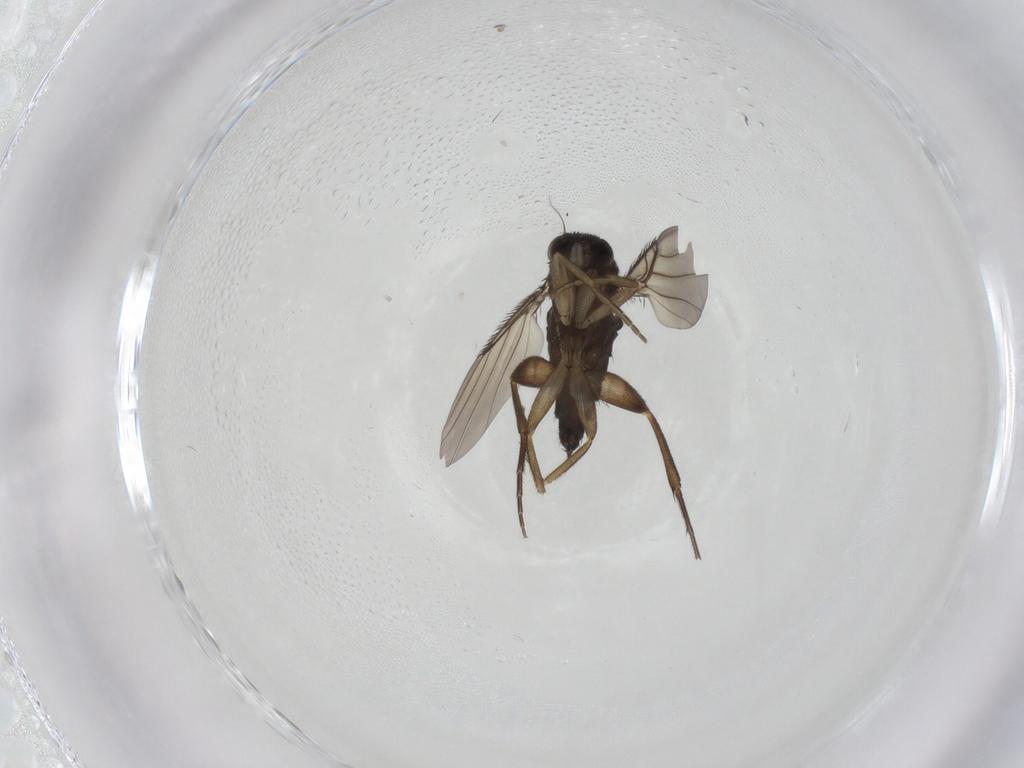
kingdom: Animalia
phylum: Arthropoda
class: Insecta
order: Diptera
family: Phoridae
